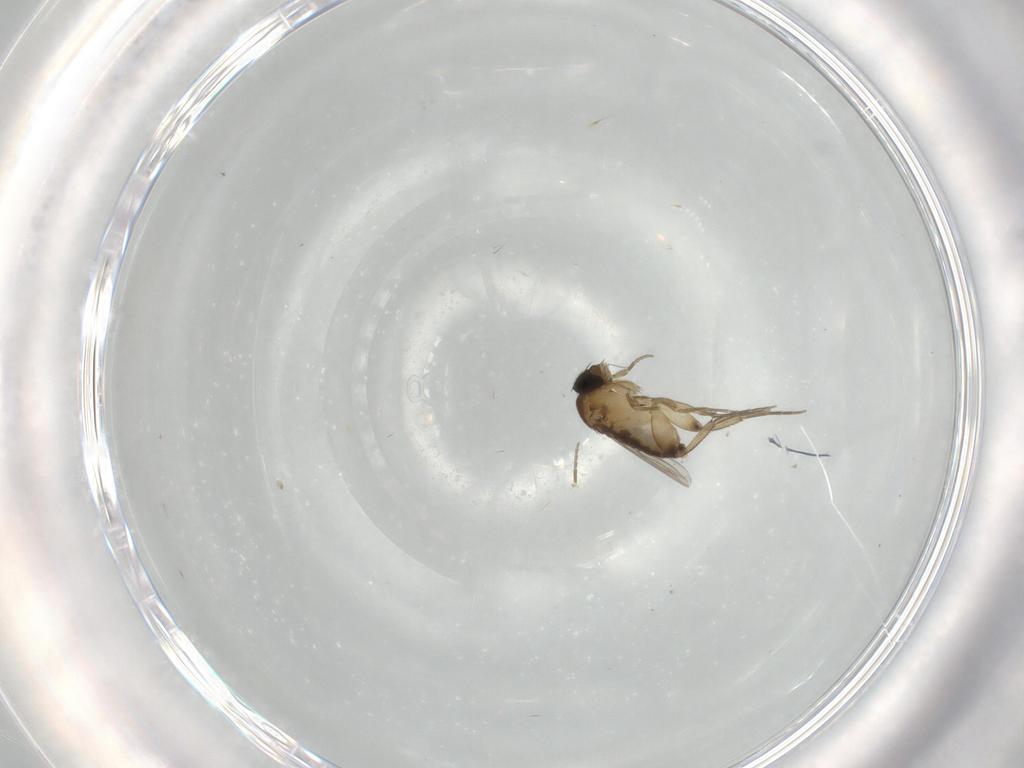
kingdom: Animalia
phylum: Arthropoda
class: Insecta
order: Diptera
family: Phoridae
